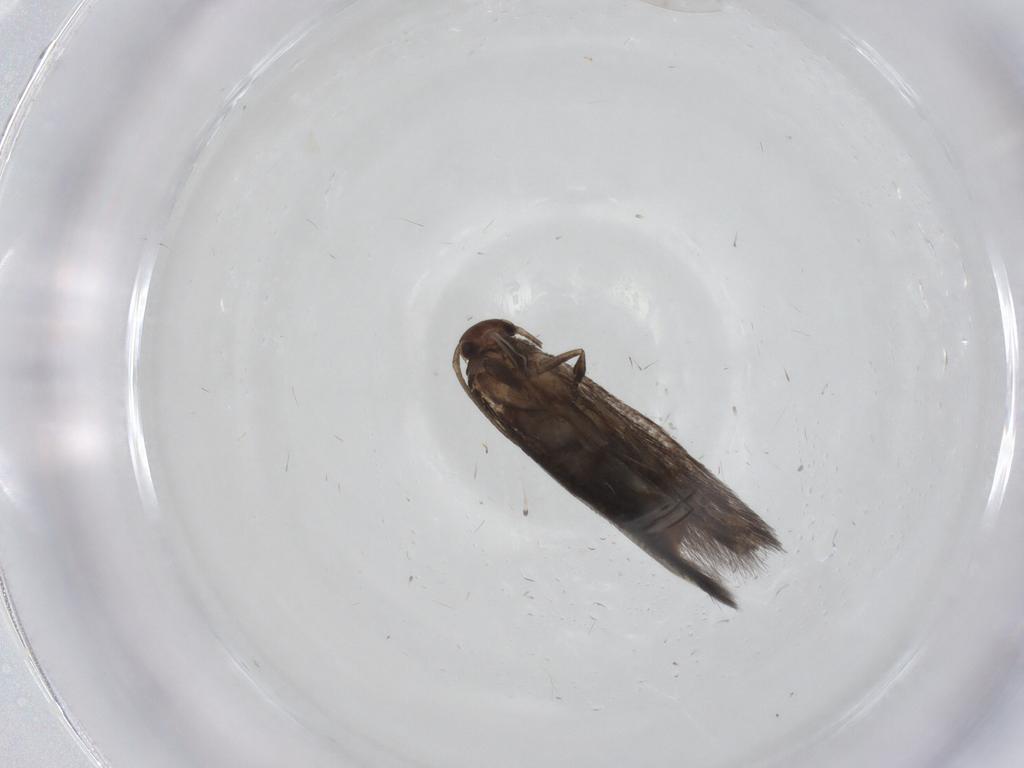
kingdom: Animalia
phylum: Arthropoda
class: Insecta
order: Lepidoptera
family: Elachistidae
